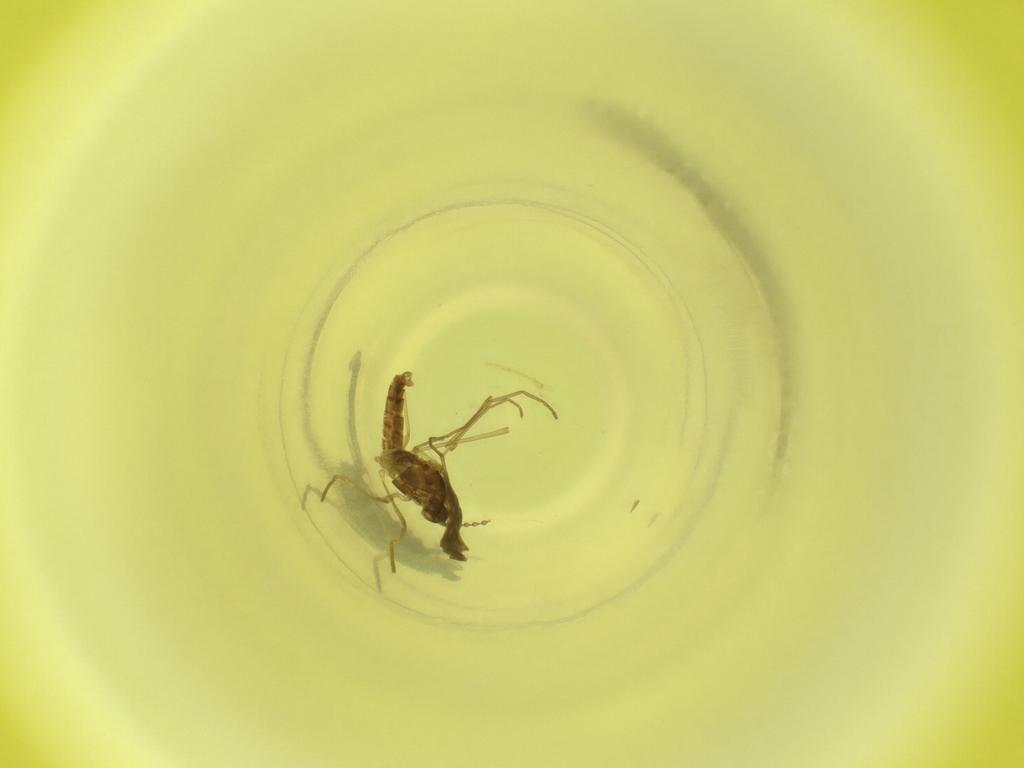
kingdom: Animalia
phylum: Arthropoda
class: Insecta
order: Diptera
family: Cecidomyiidae
